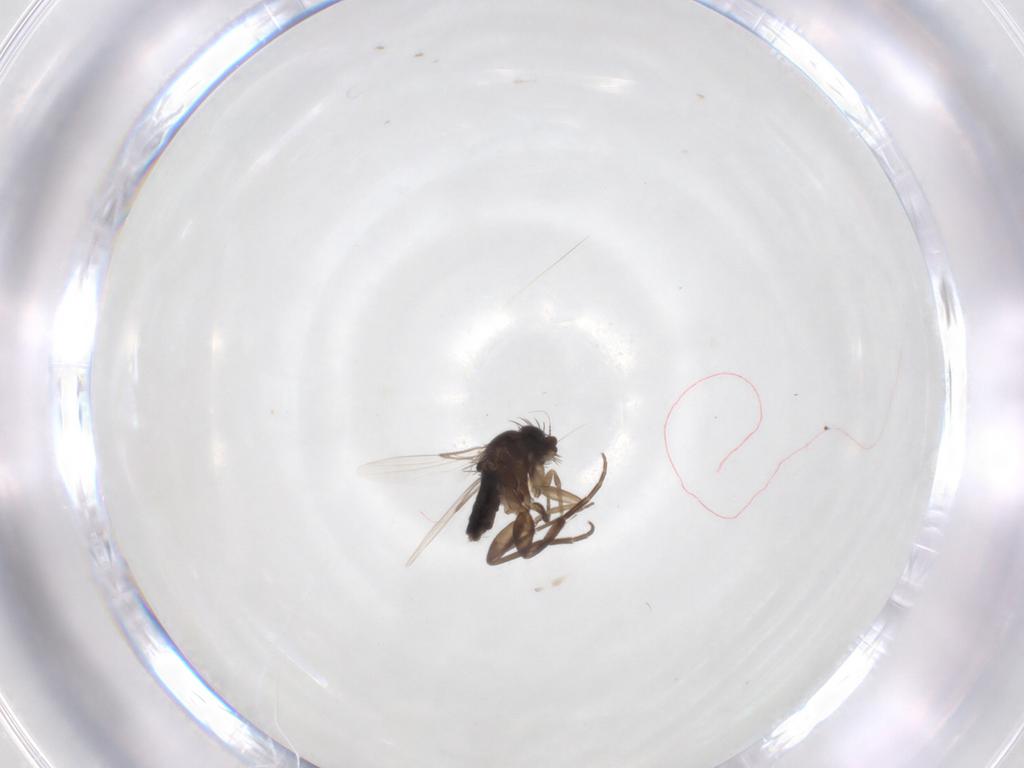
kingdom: Animalia
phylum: Arthropoda
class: Insecta
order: Diptera
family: Phoridae
